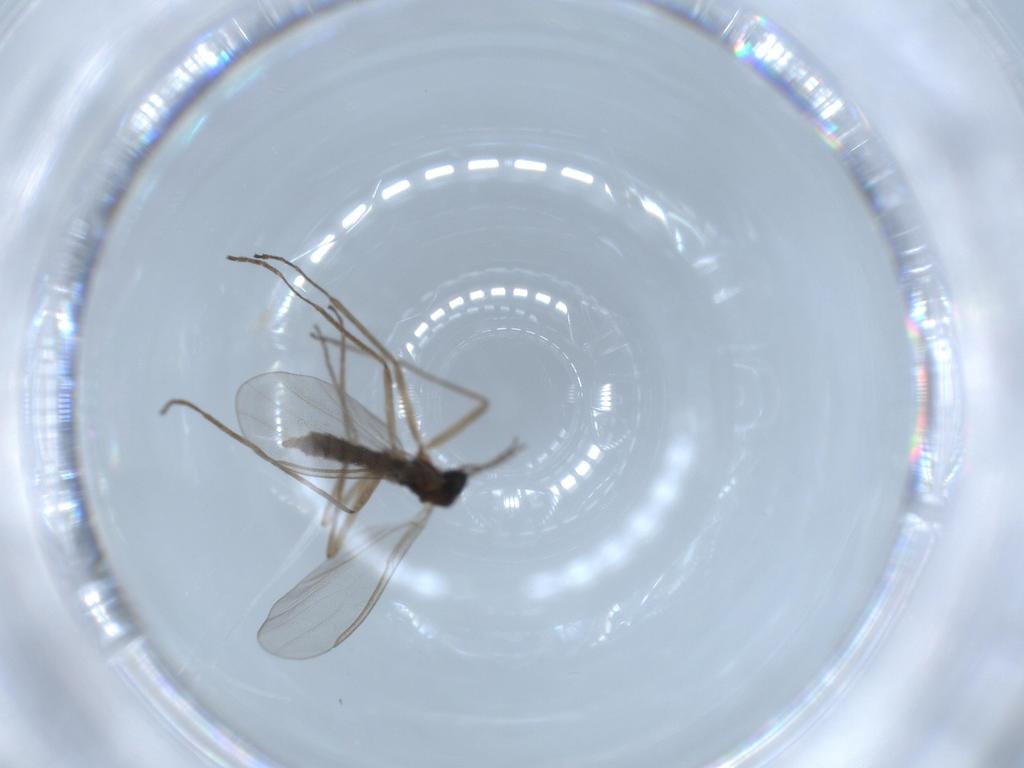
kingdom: Animalia
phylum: Arthropoda
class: Insecta
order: Diptera
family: Cecidomyiidae
